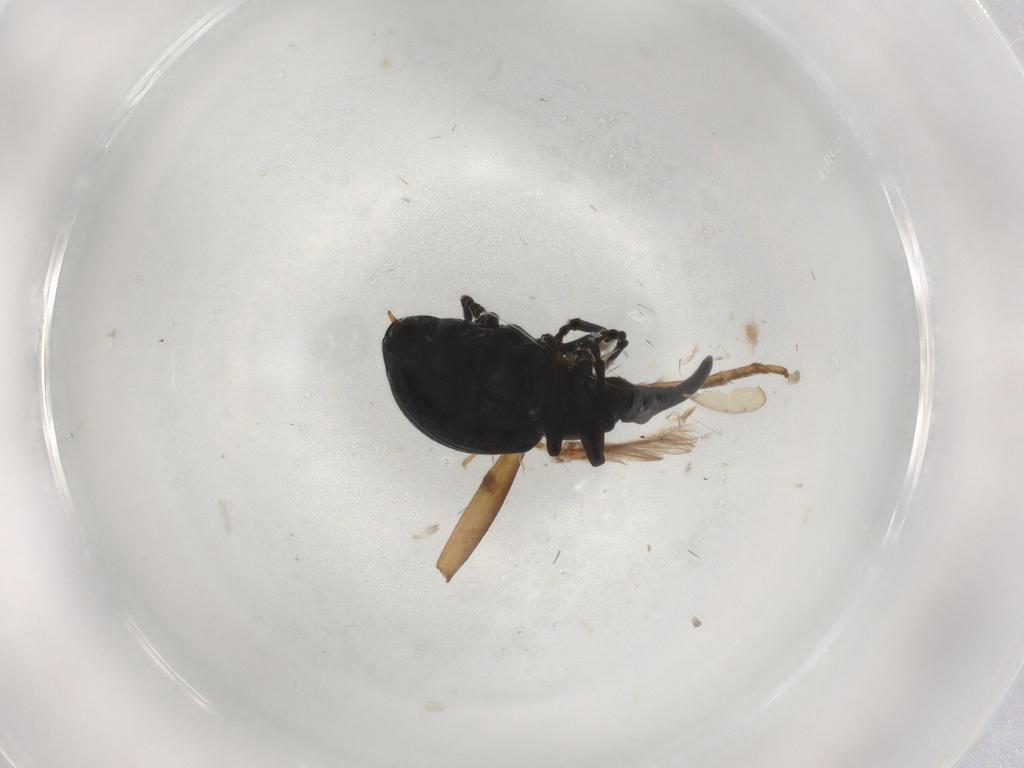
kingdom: Animalia
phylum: Arthropoda
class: Insecta
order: Coleoptera
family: Apionidae
